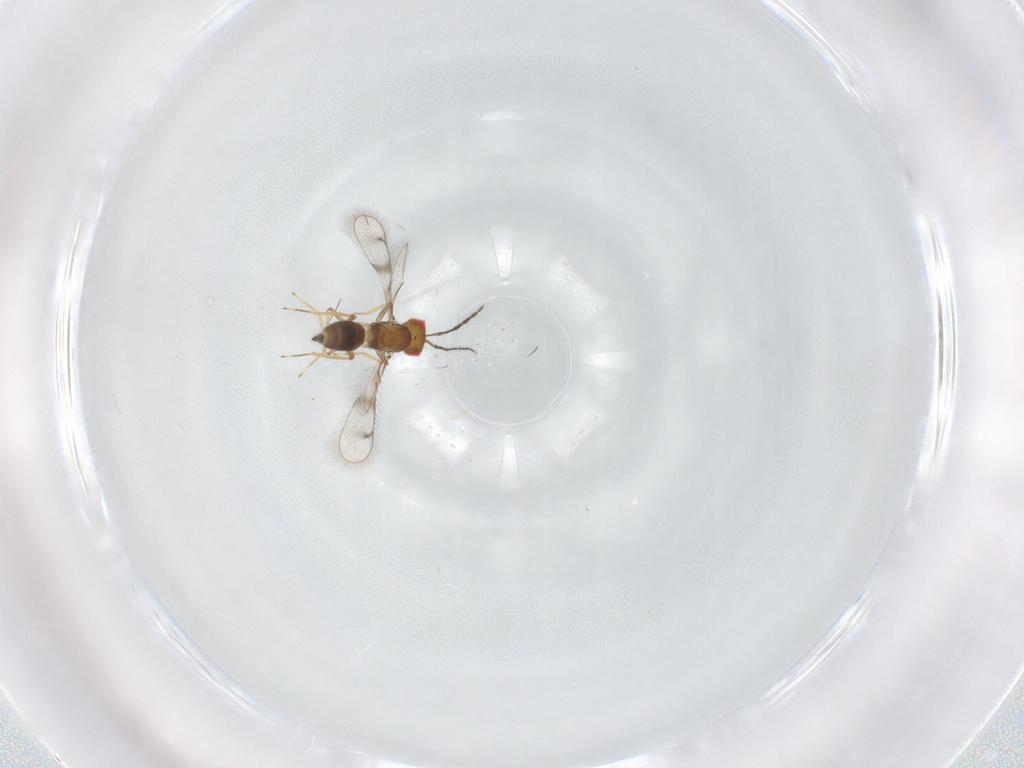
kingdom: Animalia
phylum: Arthropoda
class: Insecta
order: Hymenoptera
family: Eulophidae
